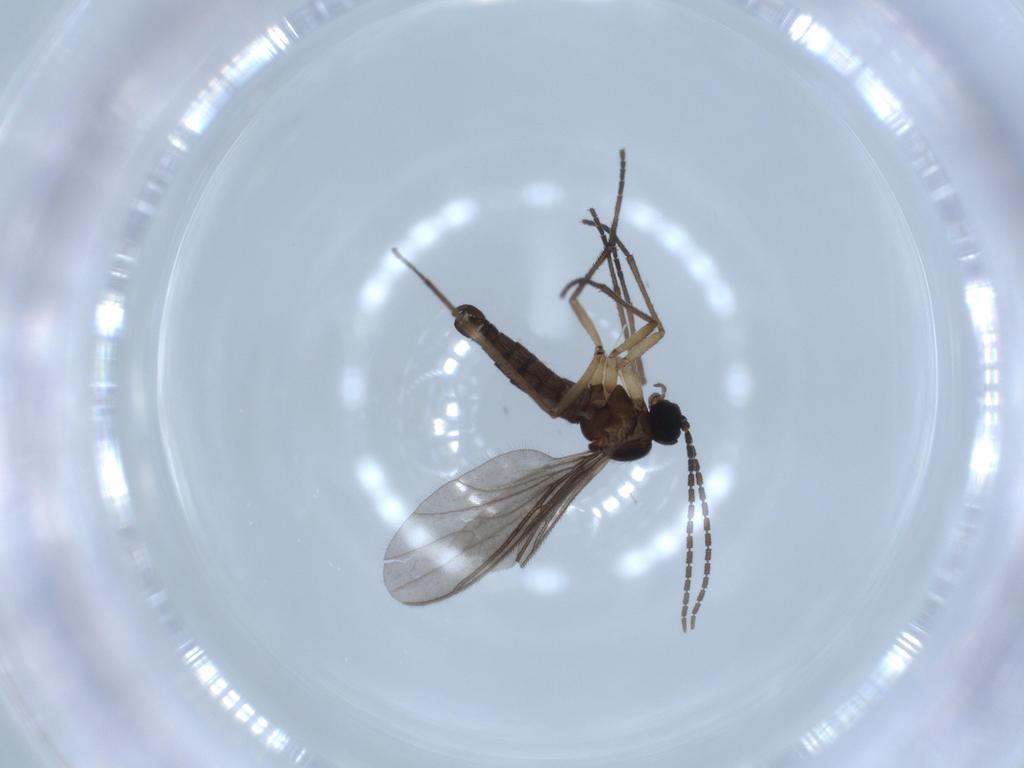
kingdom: Animalia
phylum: Arthropoda
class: Insecta
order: Diptera
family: Sciaridae
